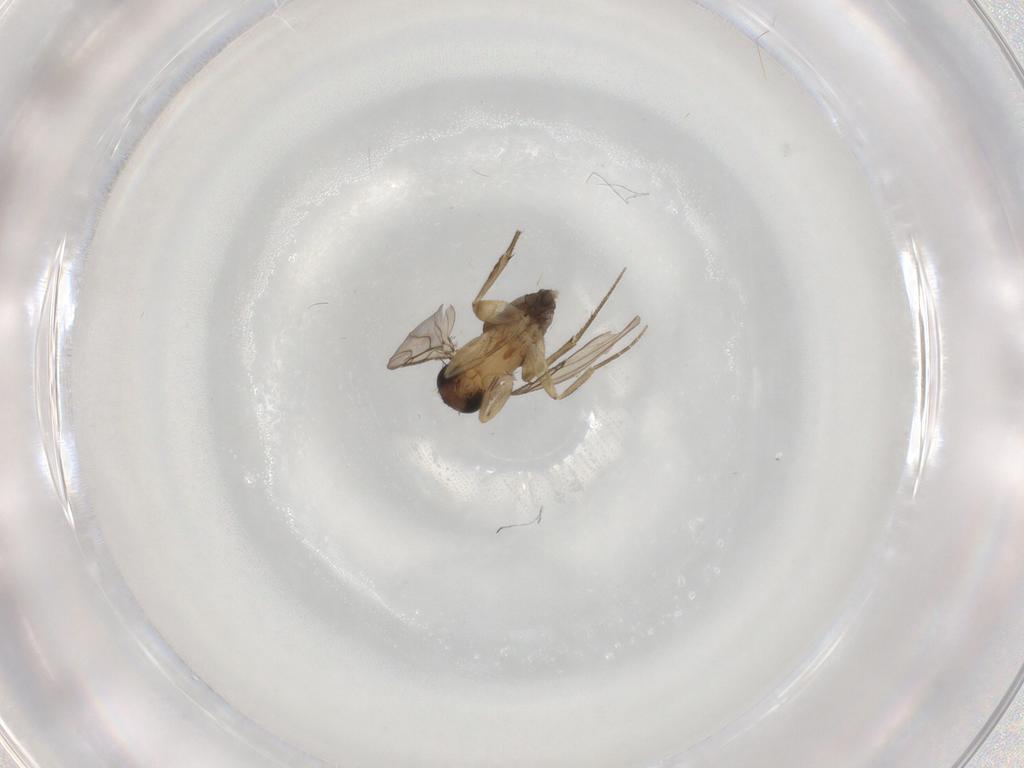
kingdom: Animalia
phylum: Arthropoda
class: Insecta
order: Diptera
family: Phoridae
